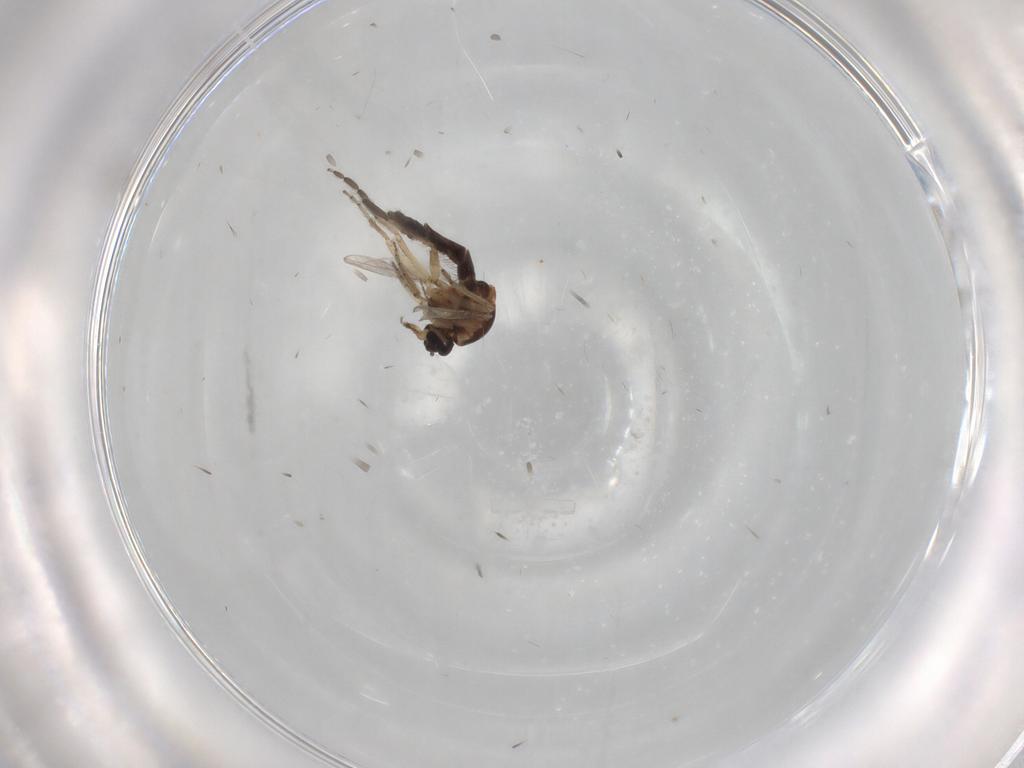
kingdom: Animalia
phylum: Arthropoda
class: Insecta
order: Diptera
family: Sciaridae
